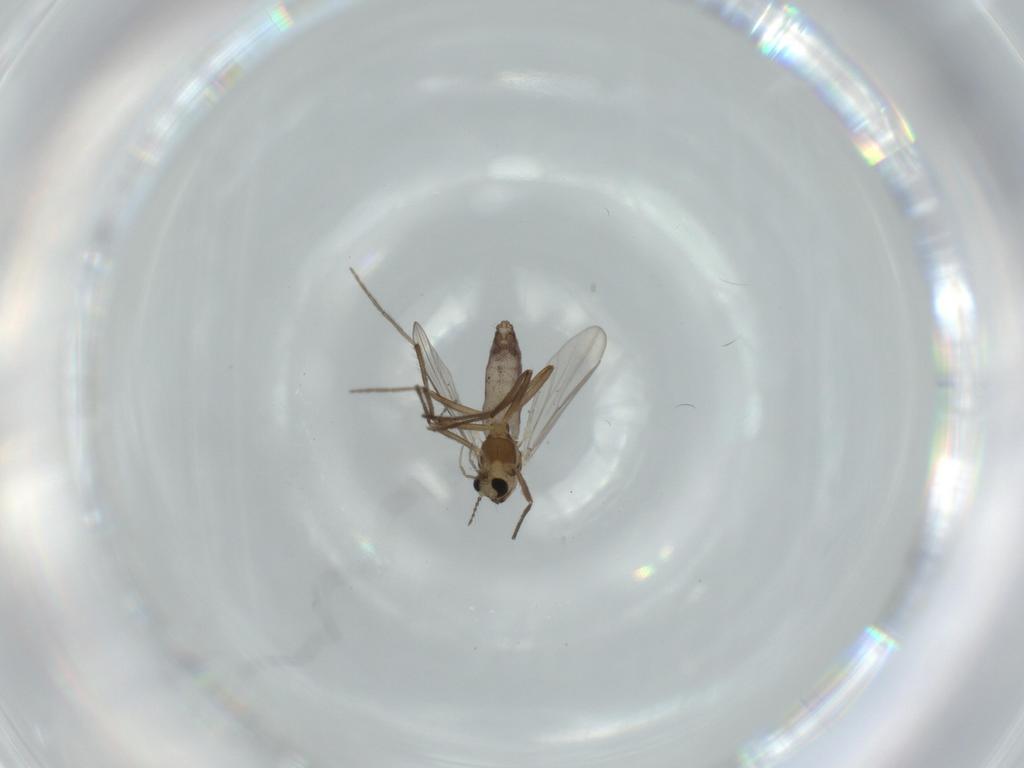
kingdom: Animalia
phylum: Arthropoda
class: Insecta
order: Diptera
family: Chironomidae
